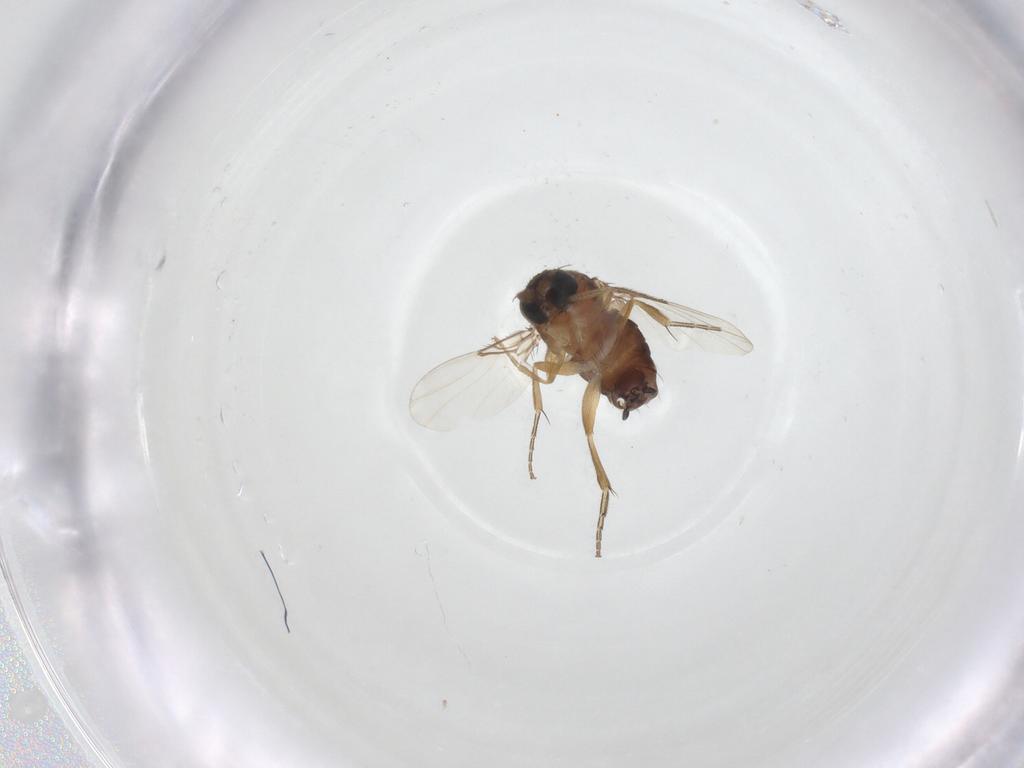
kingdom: Animalia
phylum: Arthropoda
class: Insecta
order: Diptera
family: Phoridae
